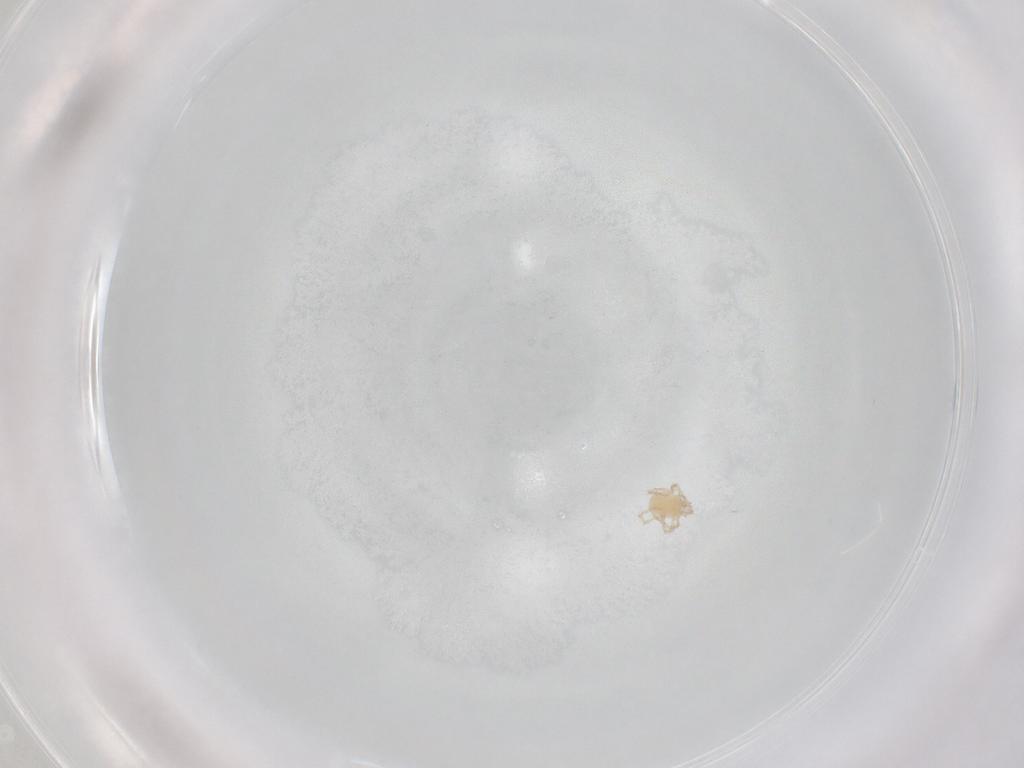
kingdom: Animalia
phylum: Arthropoda
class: Arachnida
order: Trombidiformes
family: Erythraeidae
